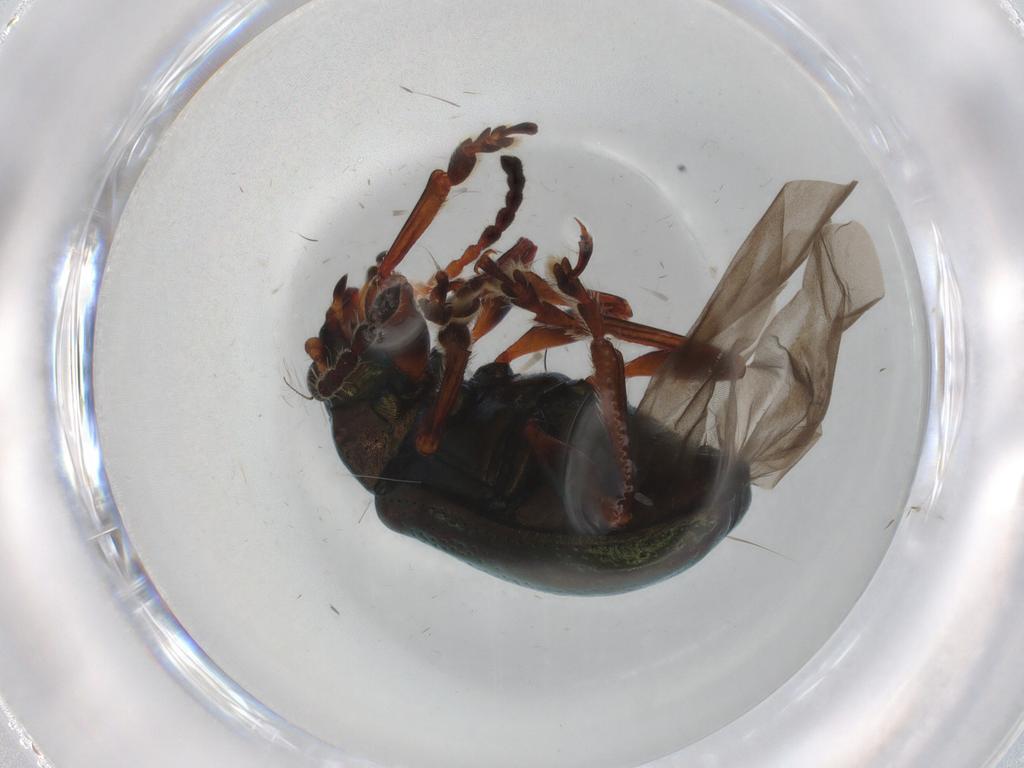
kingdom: Animalia
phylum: Arthropoda
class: Insecta
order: Coleoptera
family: Chrysomelidae
